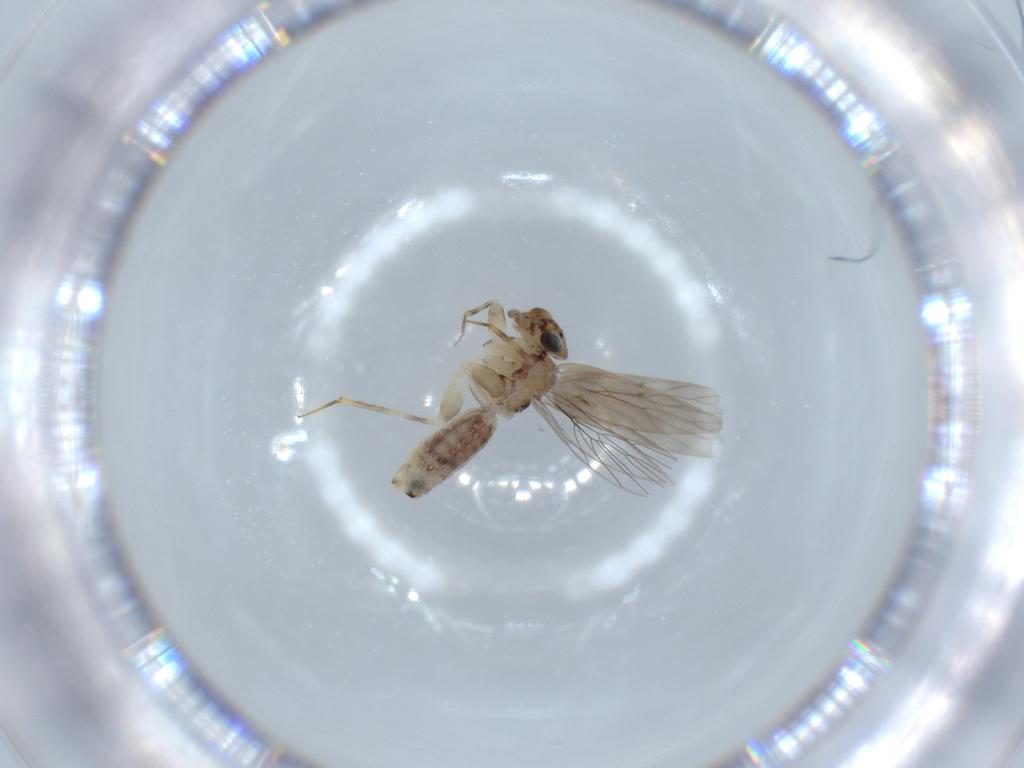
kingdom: Animalia
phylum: Arthropoda
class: Insecta
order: Psocodea
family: Lepidopsocidae
